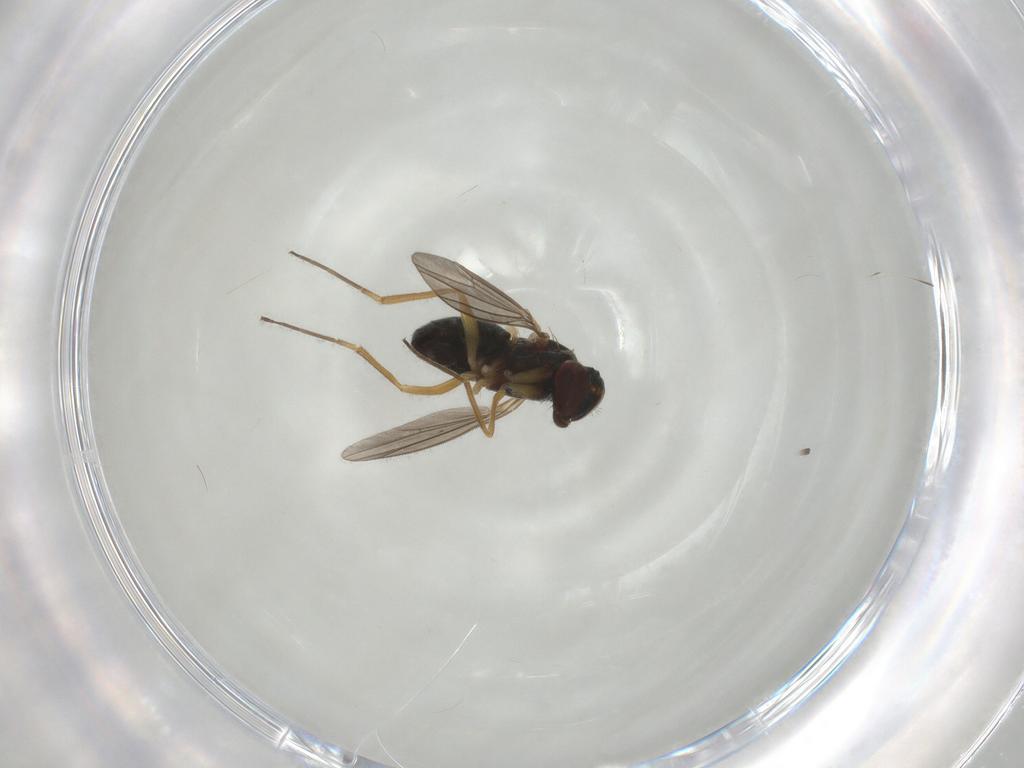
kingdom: Animalia
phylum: Arthropoda
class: Insecta
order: Diptera
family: Dolichopodidae
